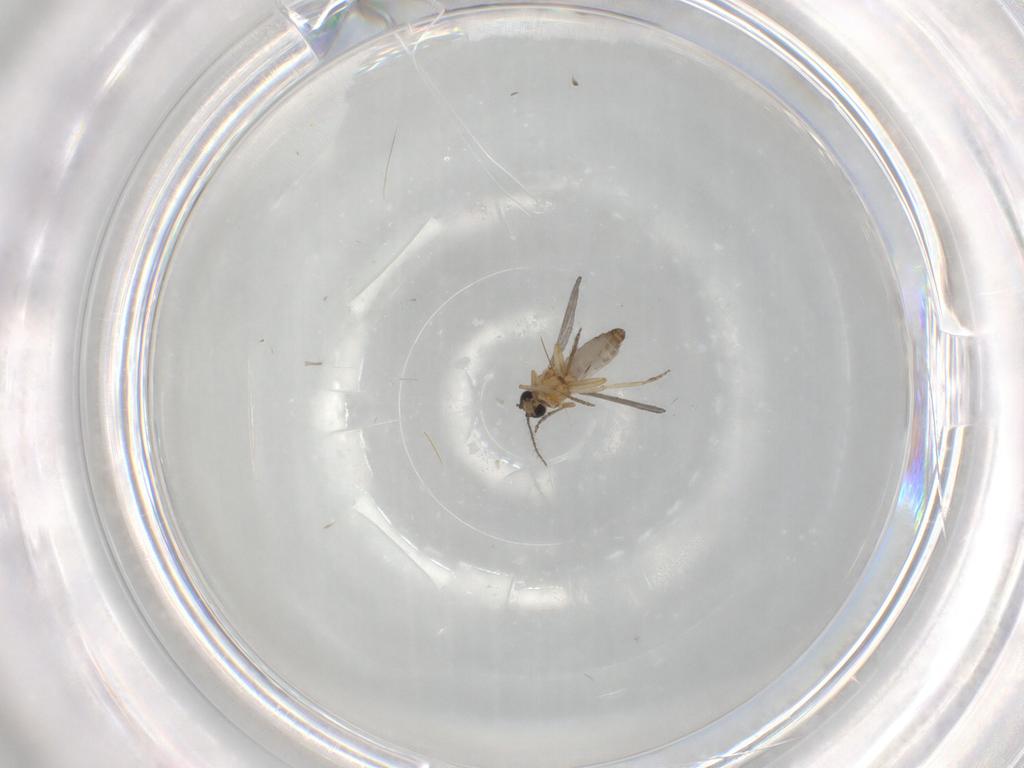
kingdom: Animalia
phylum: Arthropoda
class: Insecta
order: Diptera
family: Ceratopogonidae
